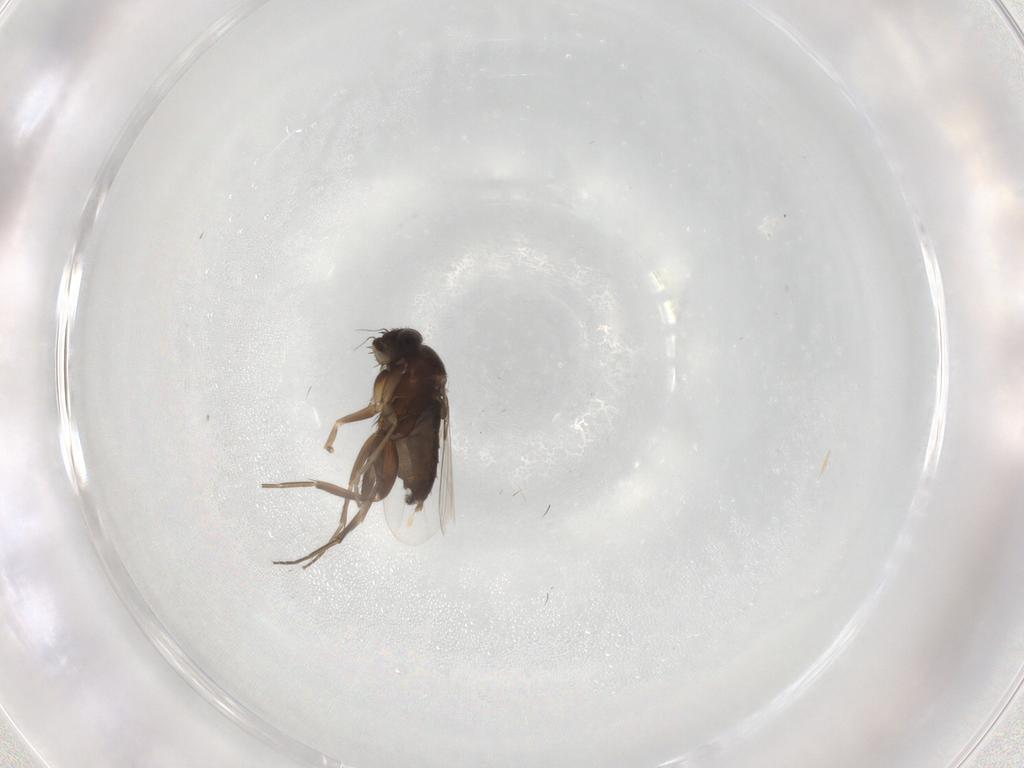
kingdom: Animalia
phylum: Arthropoda
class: Insecta
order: Diptera
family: Phoridae
